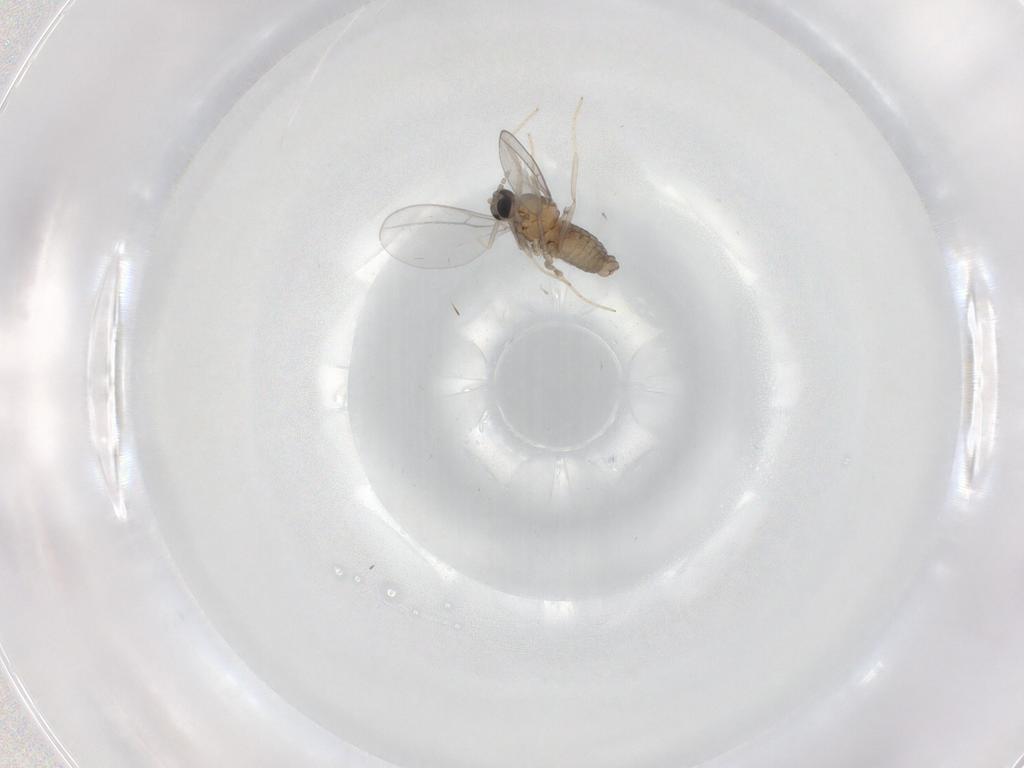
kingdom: Animalia
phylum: Arthropoda
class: Insecta
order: Diptera
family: Cecidomyiidae
